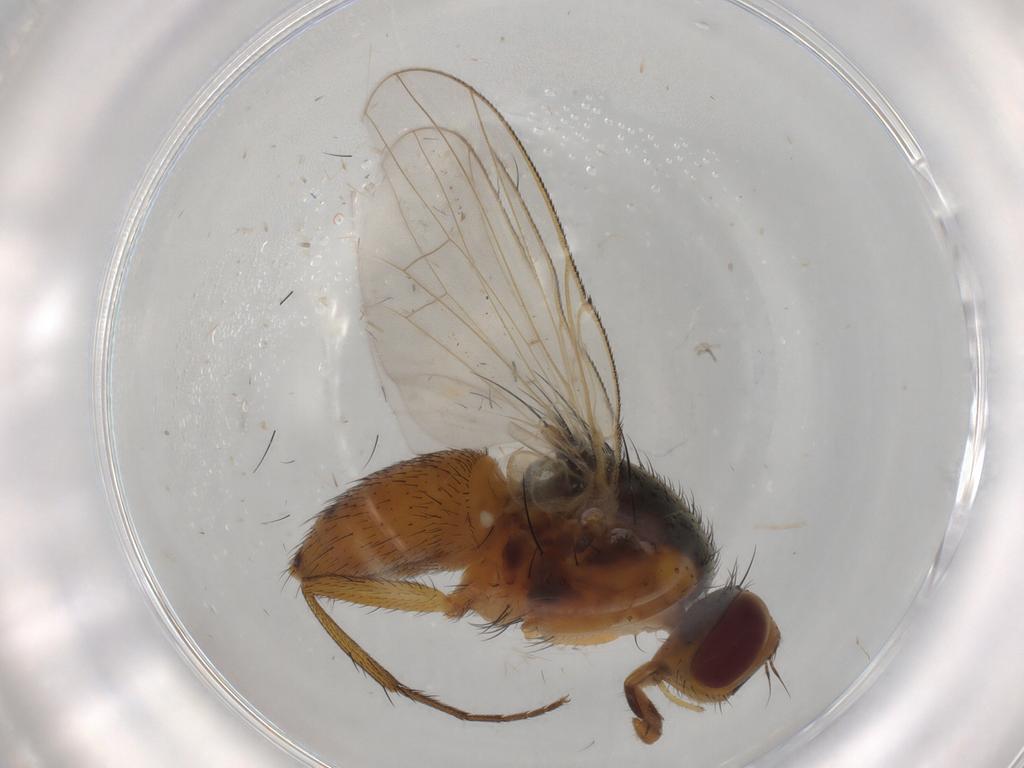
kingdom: Animalia
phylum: Arthropoda
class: Insecta
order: Diptera
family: Muscidae
